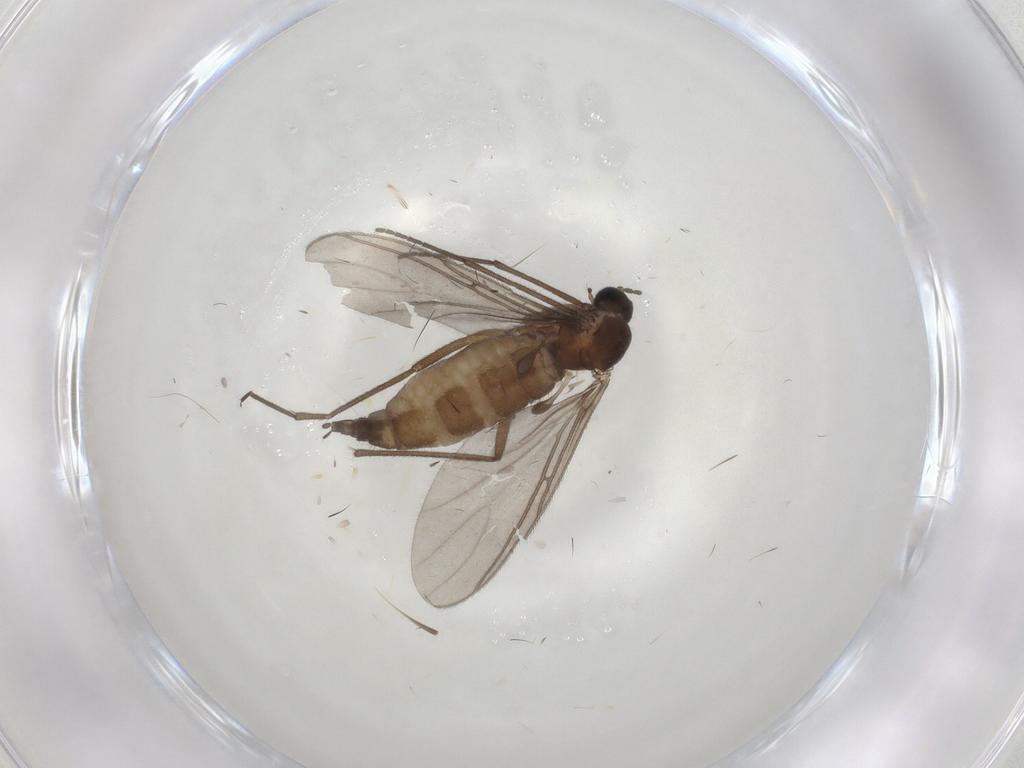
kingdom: Animalia
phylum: Arthropoda
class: Insecta
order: Diptera
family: Sciaridae
